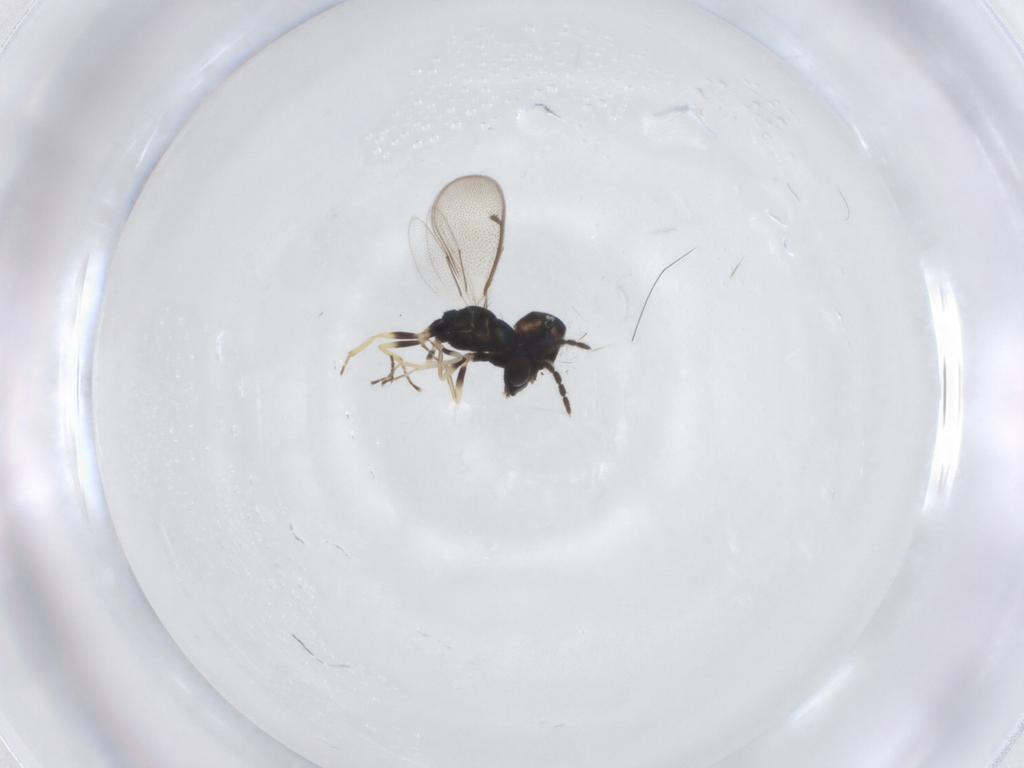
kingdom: Animalia
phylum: Arthropoda
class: Insecta
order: Hymenoptera
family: Eulophidae
